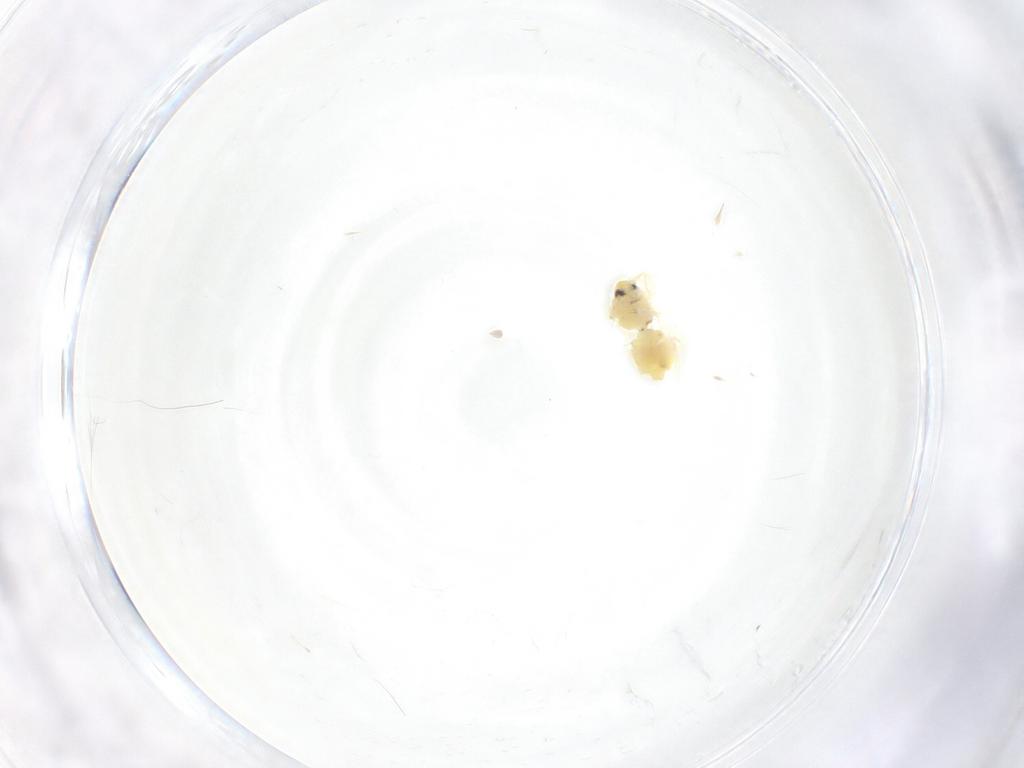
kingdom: Animalia
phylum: Arthropoda
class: Insecta
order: Hemiptera
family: Aleyrodidae
